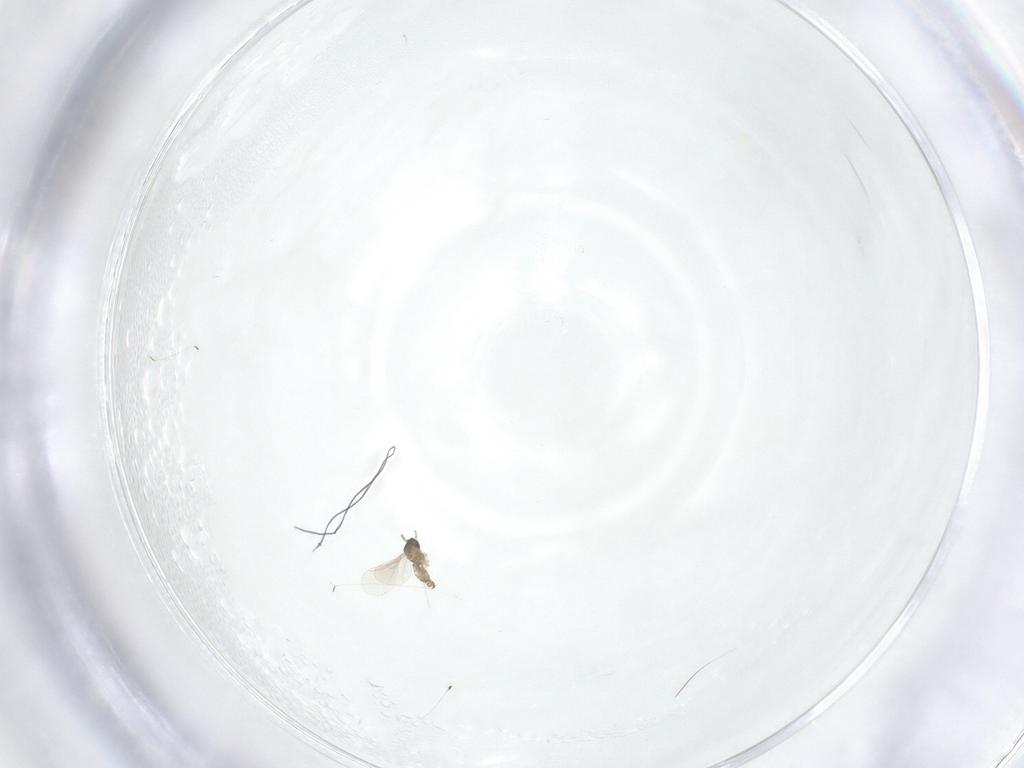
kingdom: Animalia
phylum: Arthropoda
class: Insecta
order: Diptera
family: Cecidomyiidae
